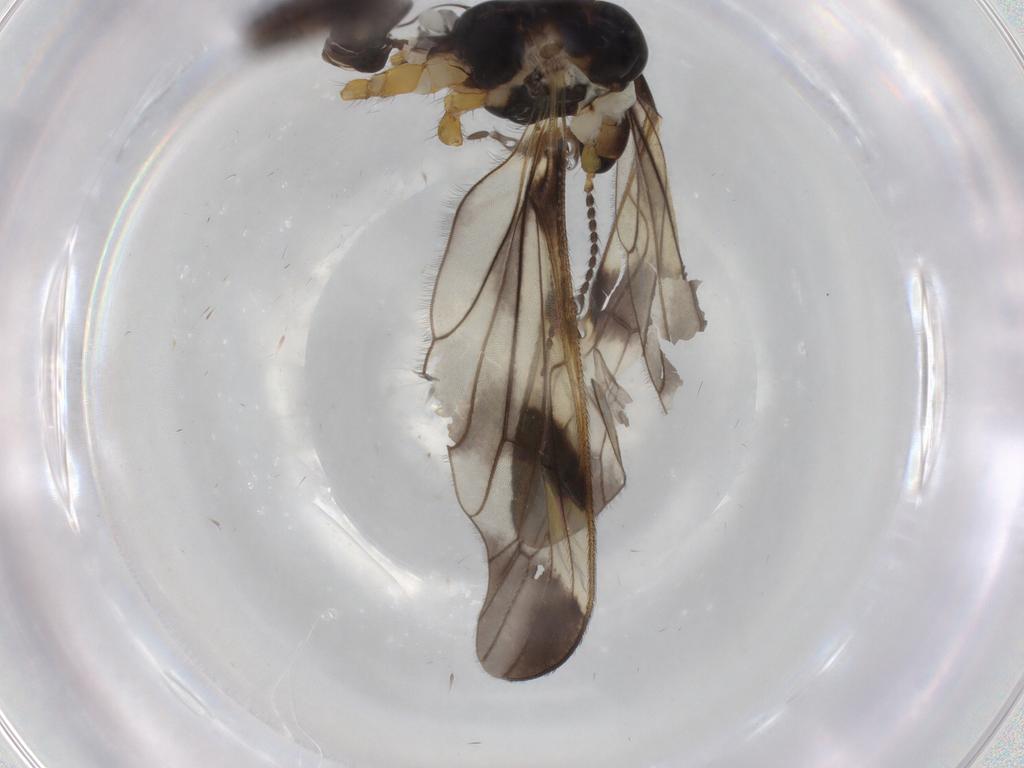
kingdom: Animalia
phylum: Arthropoda
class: Insecta
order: Diptera
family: Limoniidae
